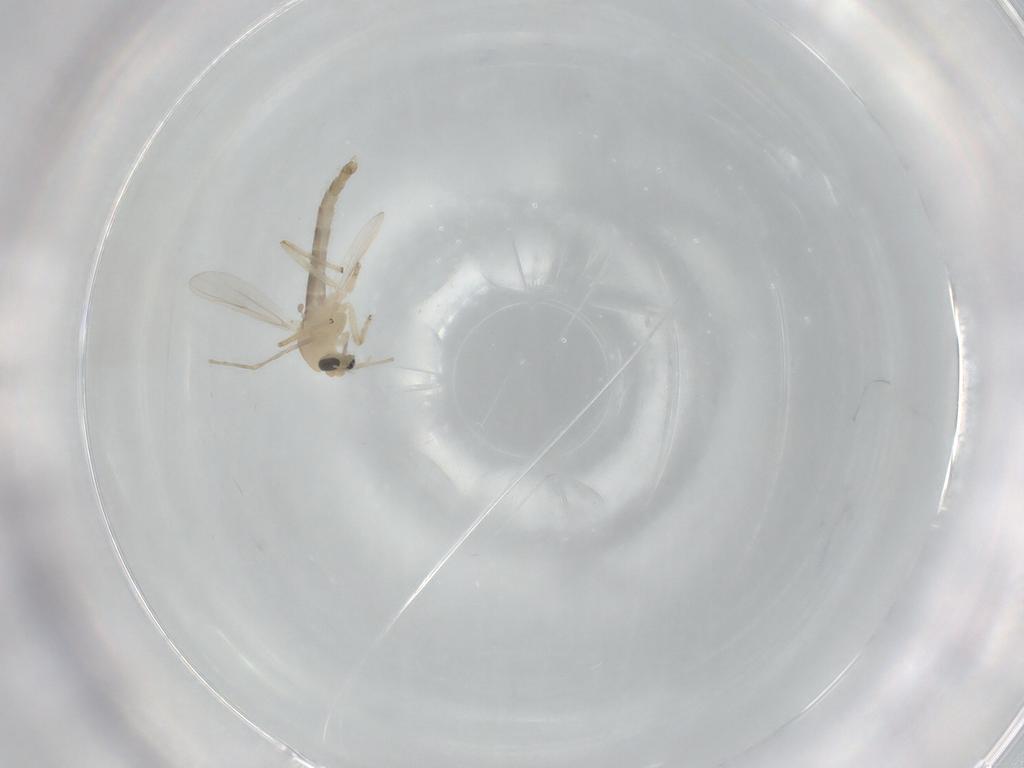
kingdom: Animalia
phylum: Arthropoda
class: Insecta
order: Diptera
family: Chironomidae
